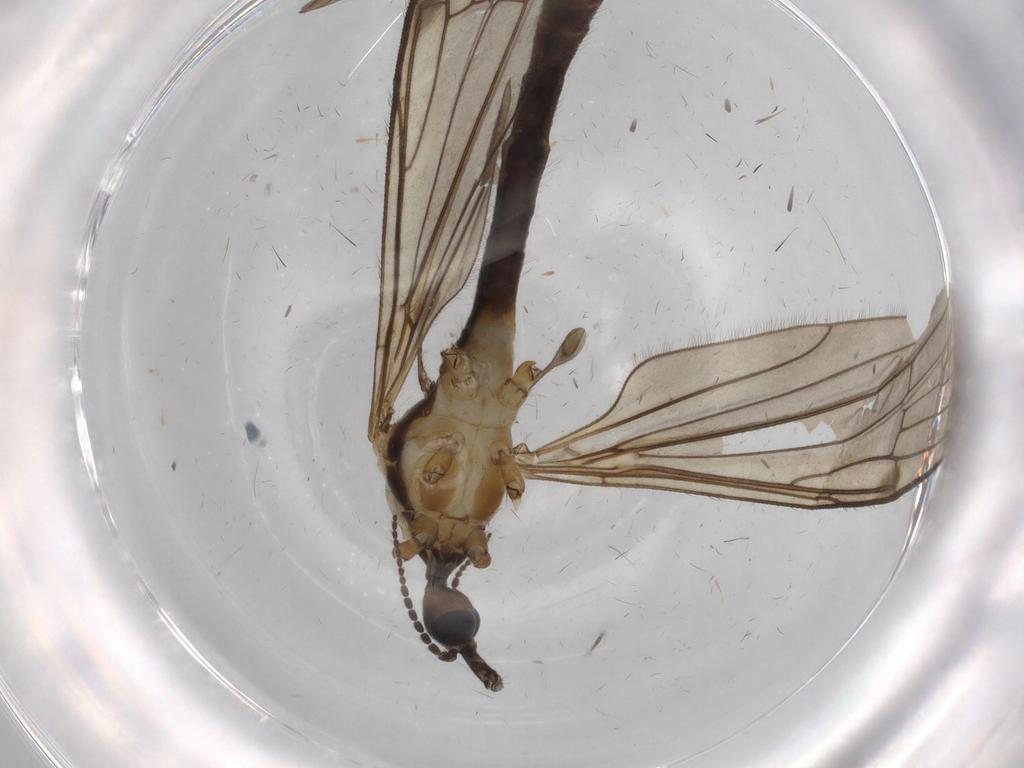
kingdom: Animalia
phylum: Arthropoda
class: Insecta
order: Diptera
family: Limoniidae
